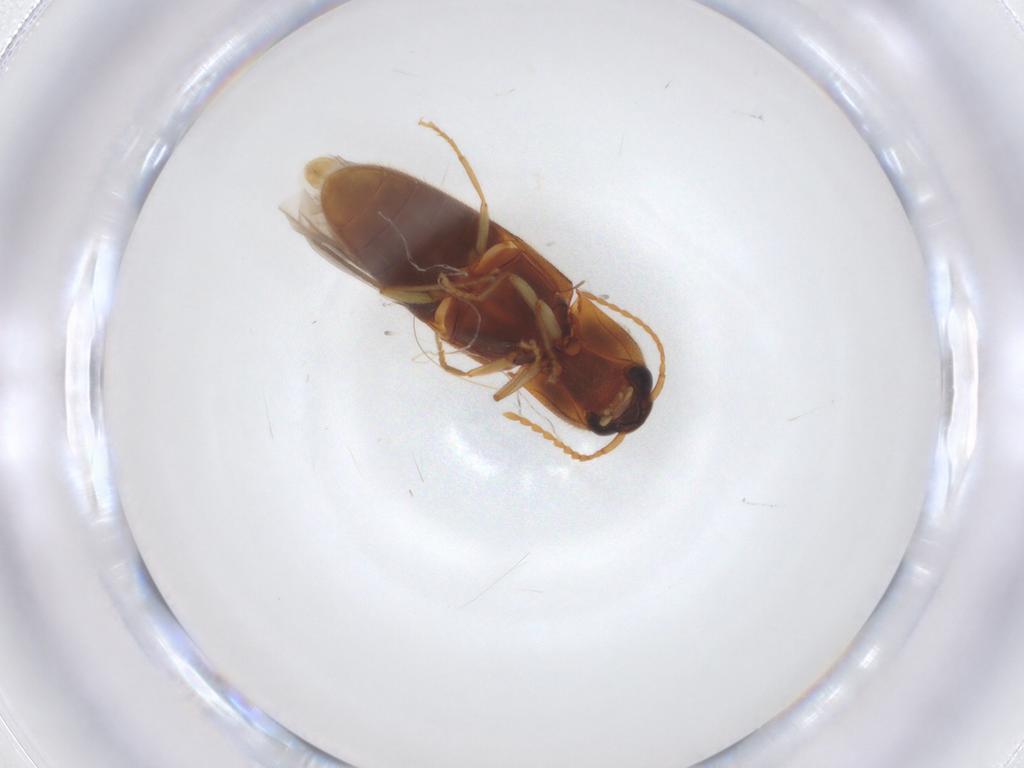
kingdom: Animalia
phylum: Arthropoda
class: Insecta
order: Coleoptera
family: Elateridae
